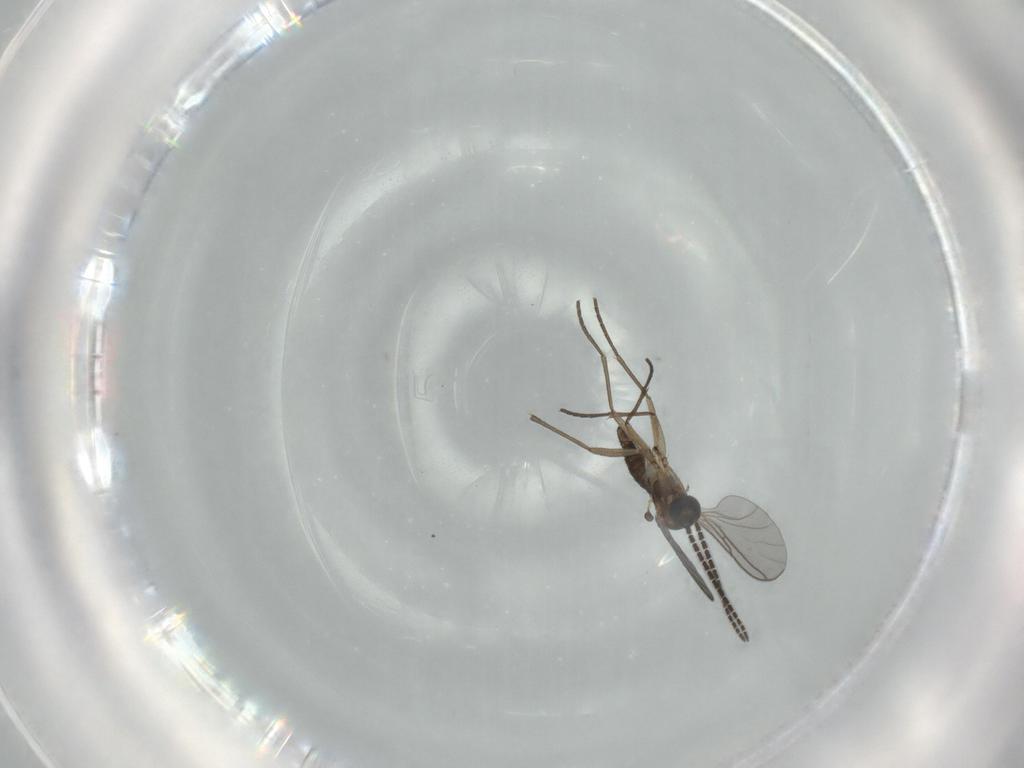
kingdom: Animalia
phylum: Arthropoda
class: Insecta
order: Diptera
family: Sciaridae
